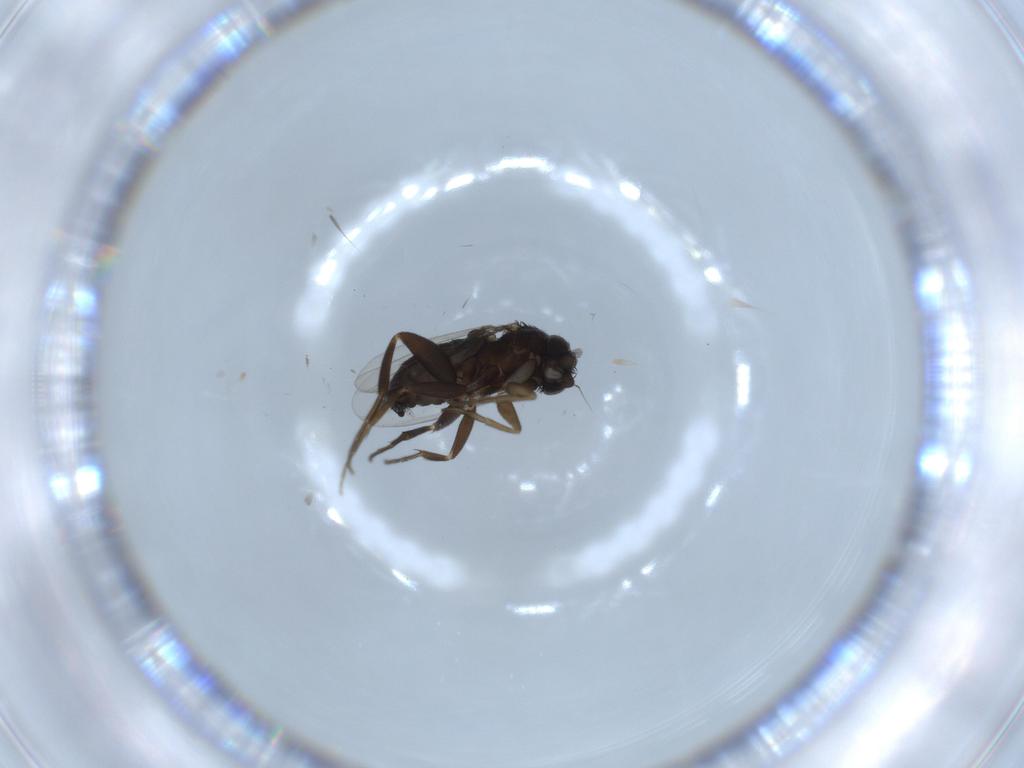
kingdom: Animalia
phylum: Arthropoda
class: Insecta
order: Diptera
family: Phoridae
